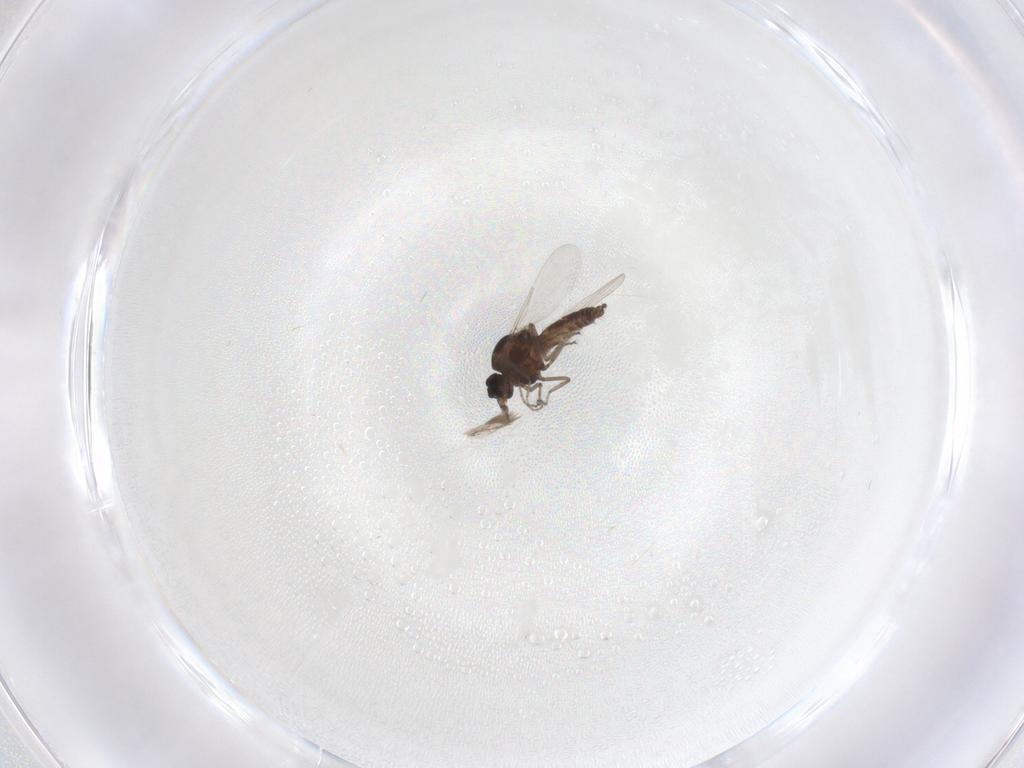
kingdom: Animalia
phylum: Arthropoda
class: Insecta
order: Diptera
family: Ceratopogonidae
